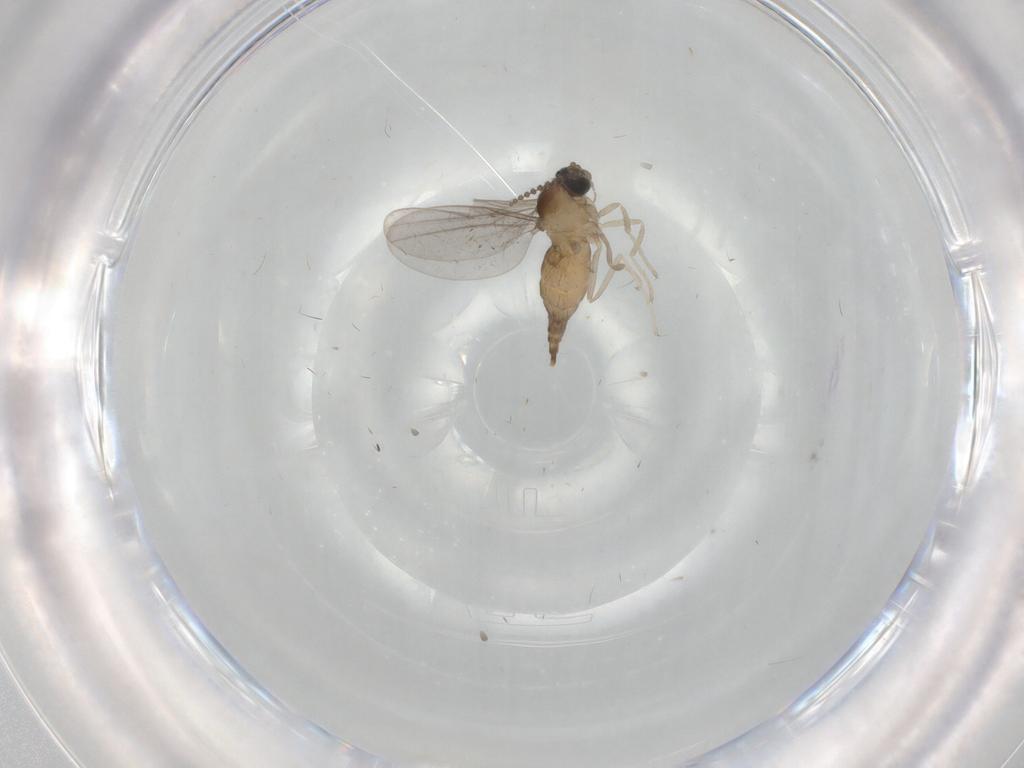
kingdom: Animalia
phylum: Arthropoda
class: Insecta
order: Diptera
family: Cecidomyiidae
